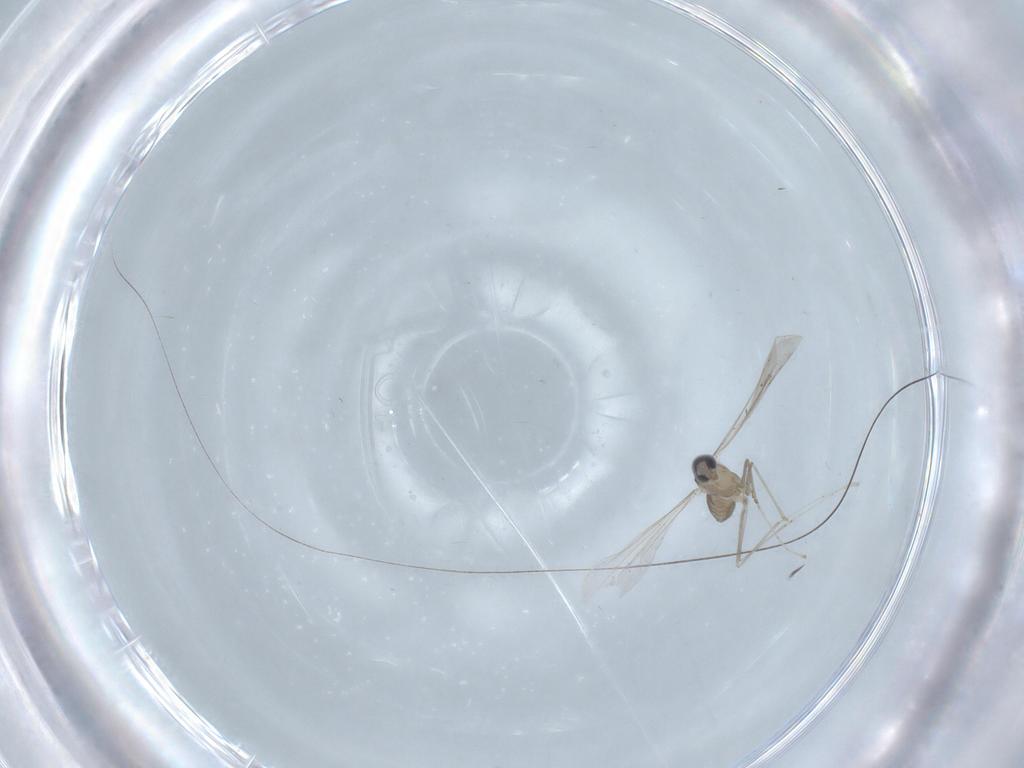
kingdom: Animalia
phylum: Arthropoda
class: Insecta
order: Diptera
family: Cecidomyiidae
